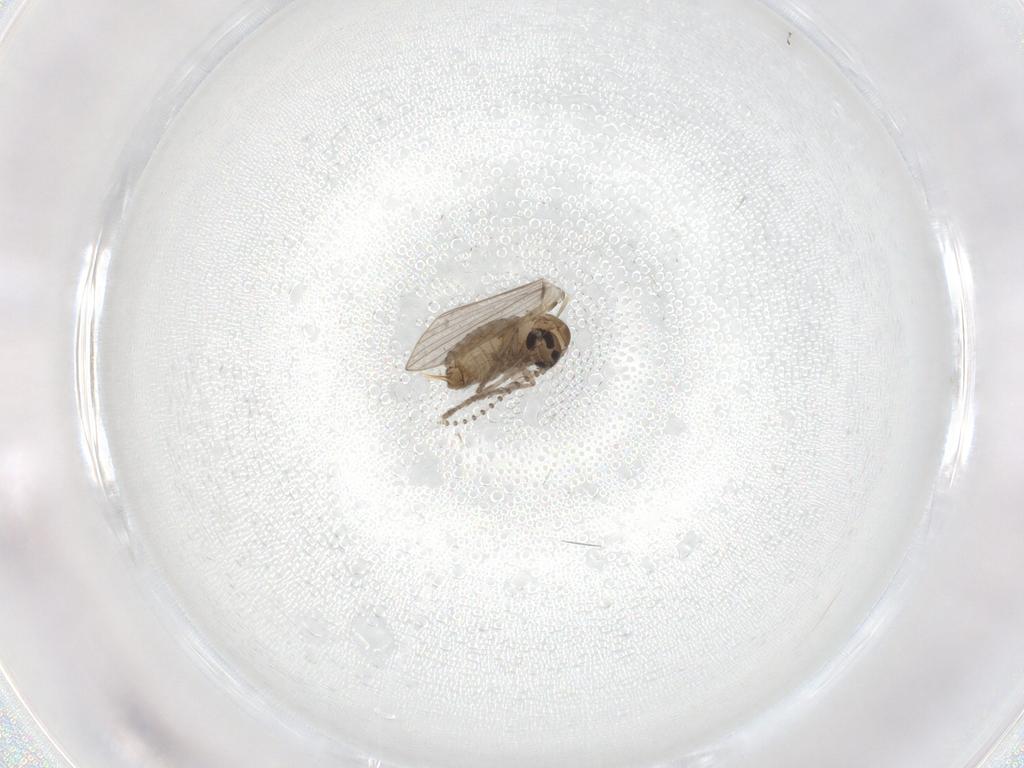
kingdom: Animalia
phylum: Arthropoda
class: Insecta
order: Diptera
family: Psychodidae
